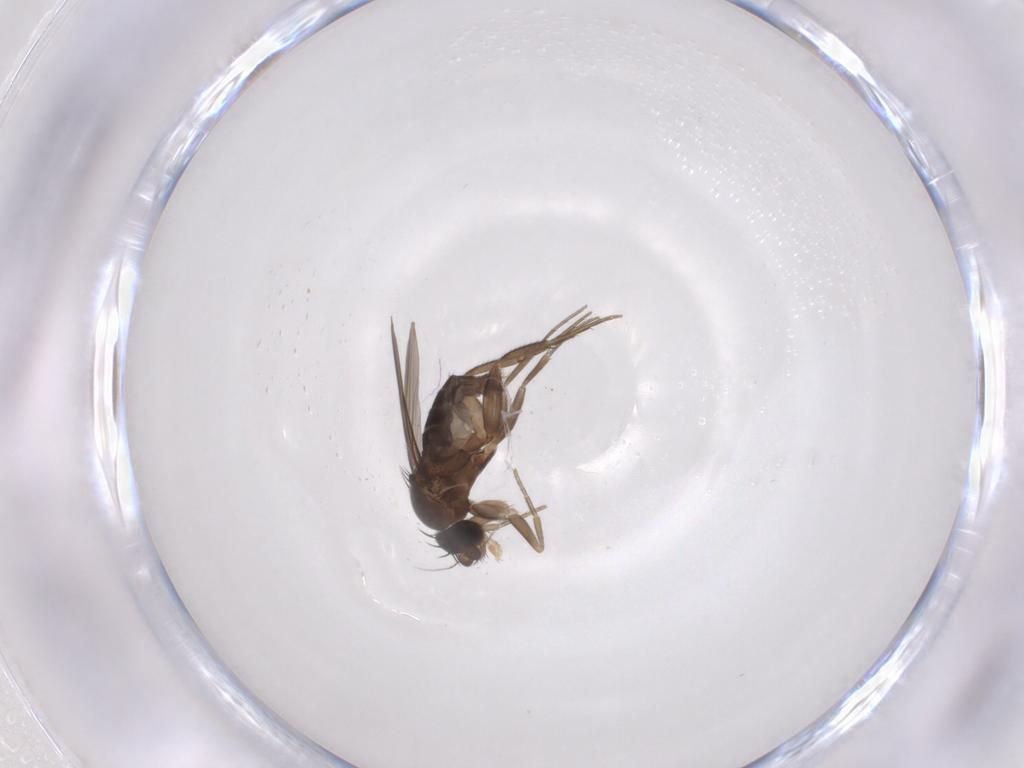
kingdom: Animalia
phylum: Arthropoda
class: Insecta
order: Diptera
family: Phoridae
